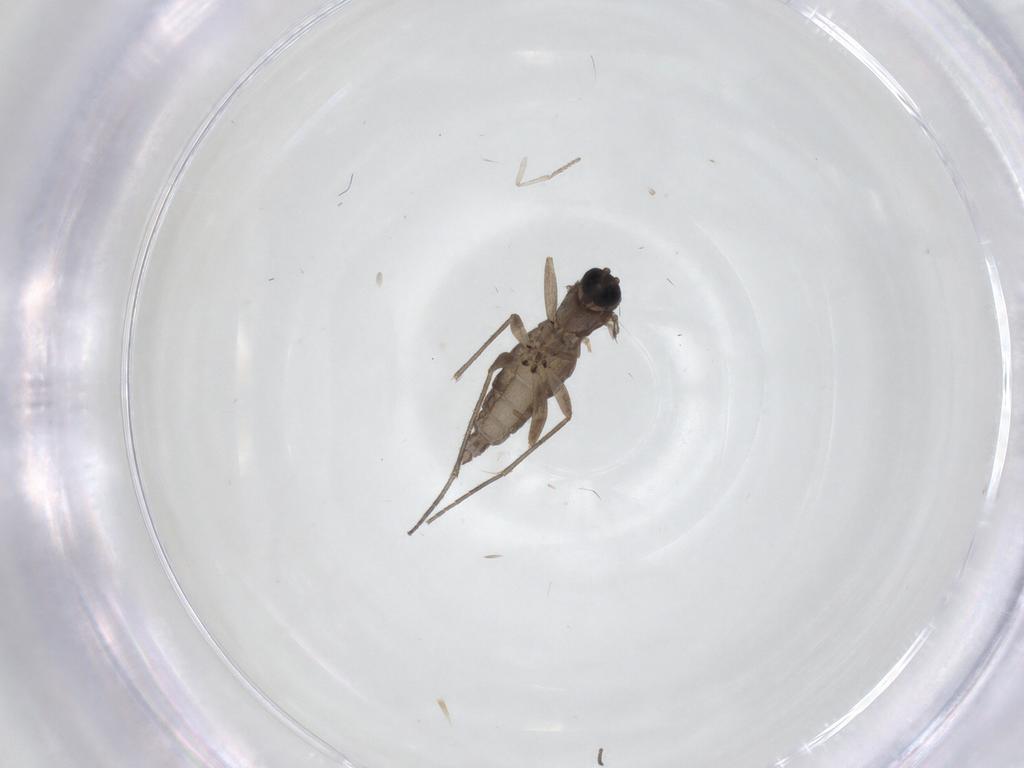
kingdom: Animalia
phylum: Arthropoda
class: Insecta
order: Diptera
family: Sciaridae
